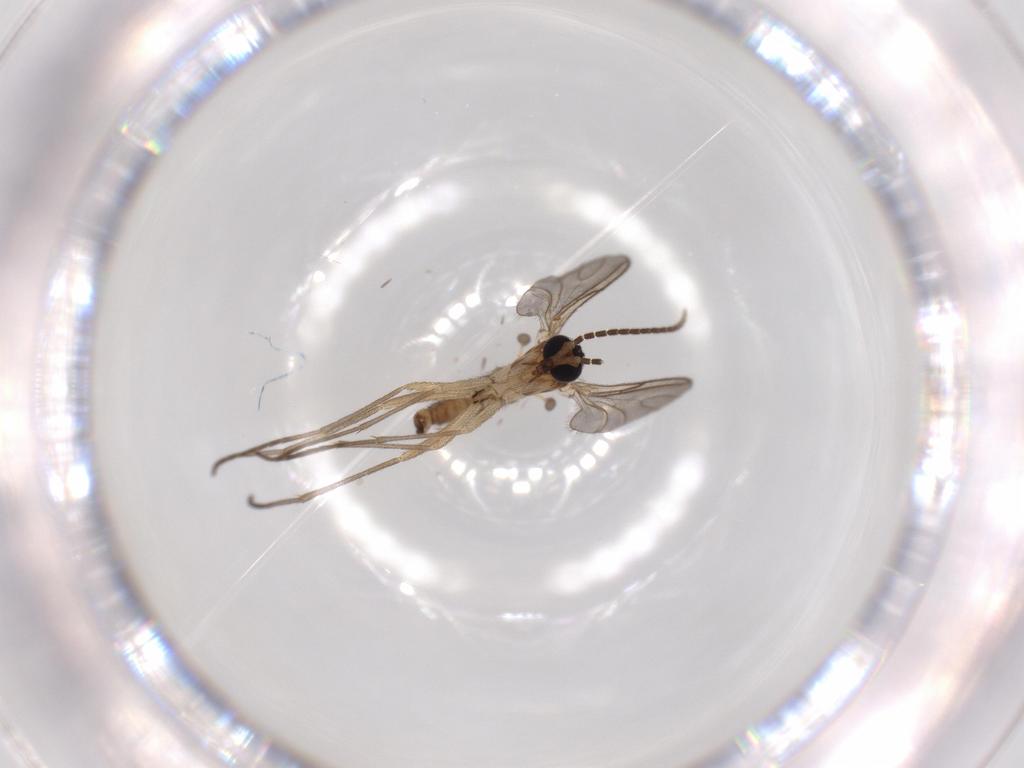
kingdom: Animalia
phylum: Arthropoda
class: Insecta
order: Diptera
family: Sciaridae
